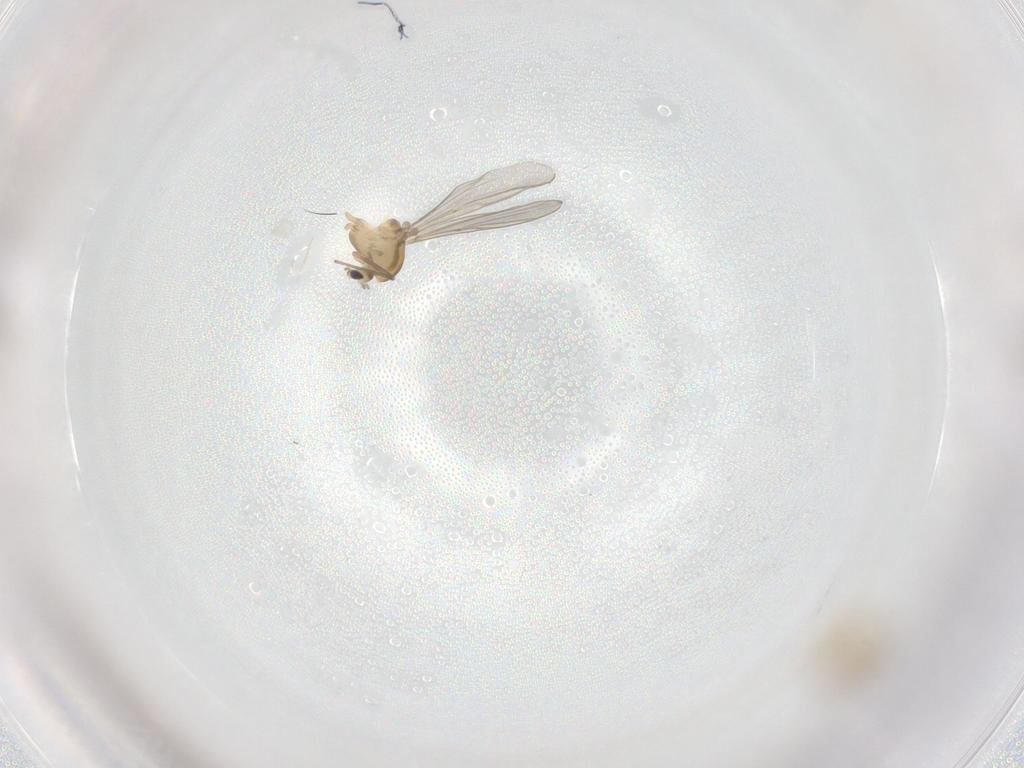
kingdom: Animalia
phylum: Arthropoda
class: Insecta
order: Diptera
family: Chironomidae
